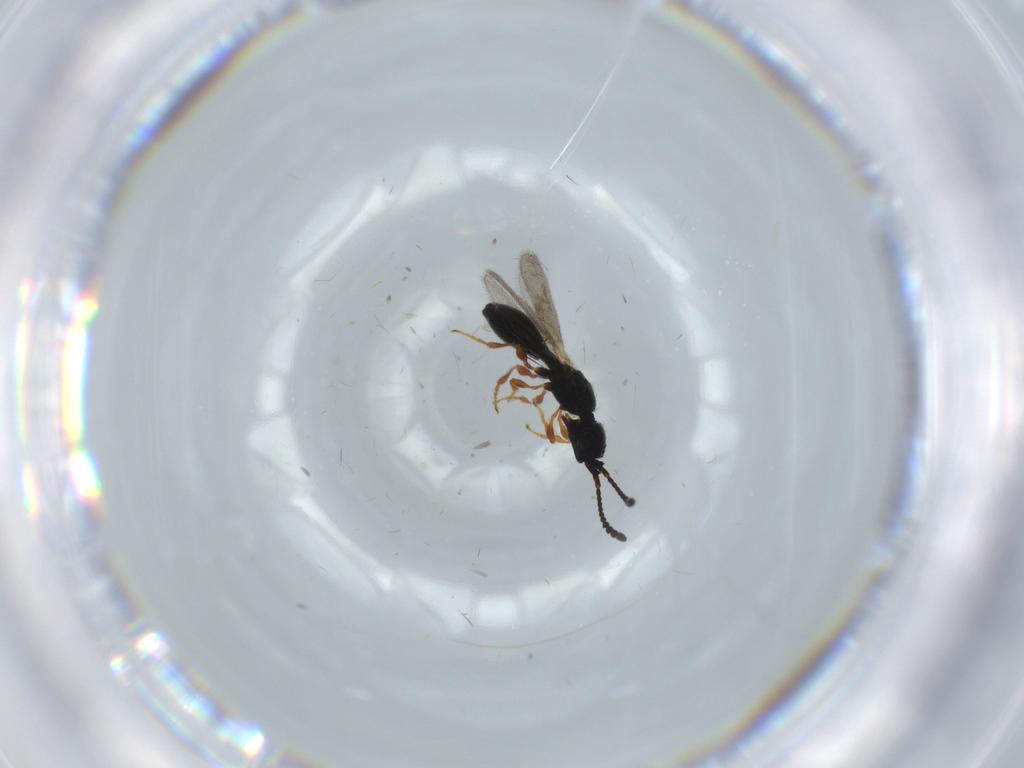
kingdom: Animalia
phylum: Arthropoda
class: Insecta
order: Hymenoptera
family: Diapriidae
